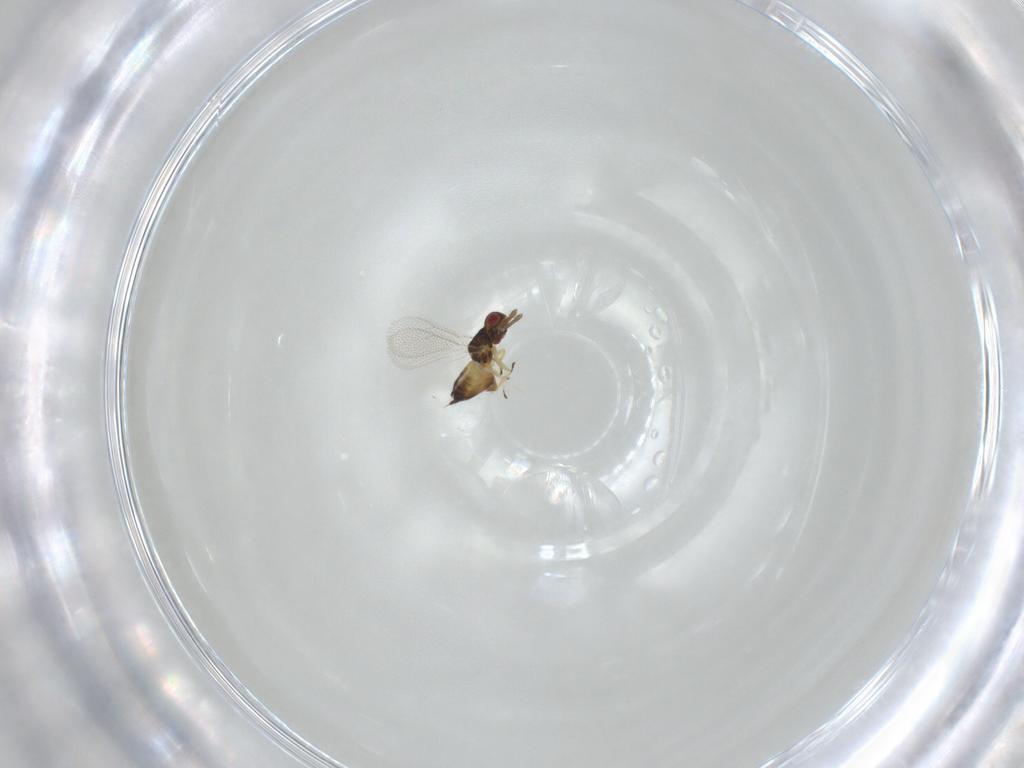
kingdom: Animalia
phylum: Arthropoda
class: Insecta
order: Hymenoptera
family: Eulophidae
